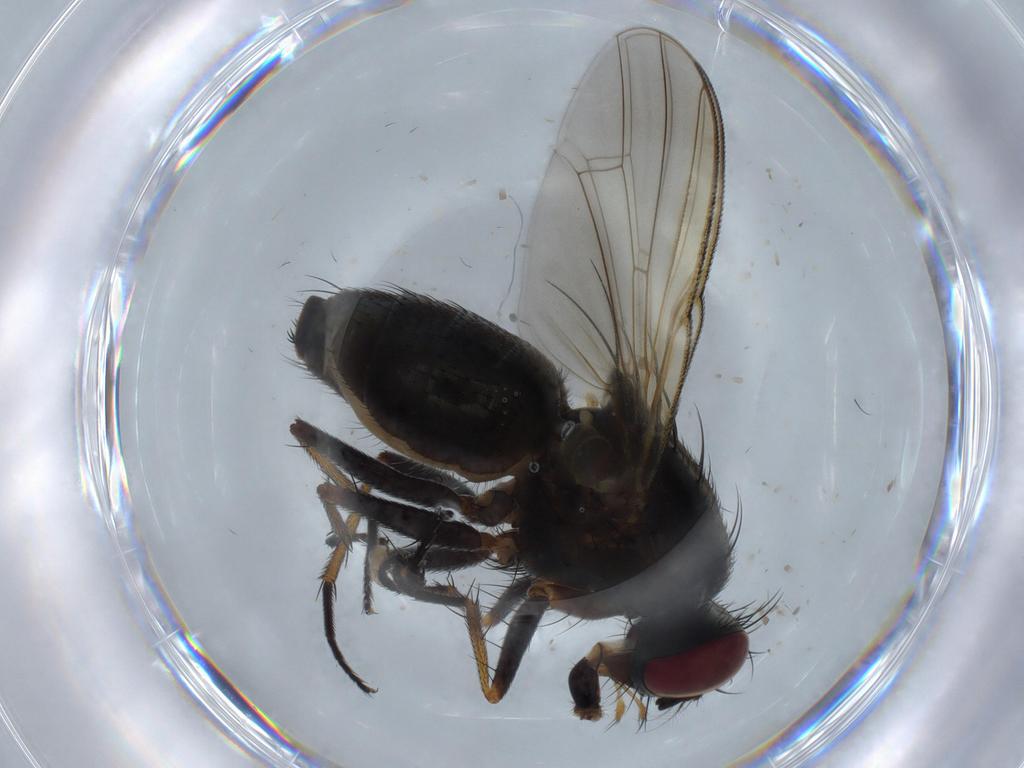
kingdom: Animalia
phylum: Arthropoda
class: Insecta
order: Diptera
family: Muscidae
